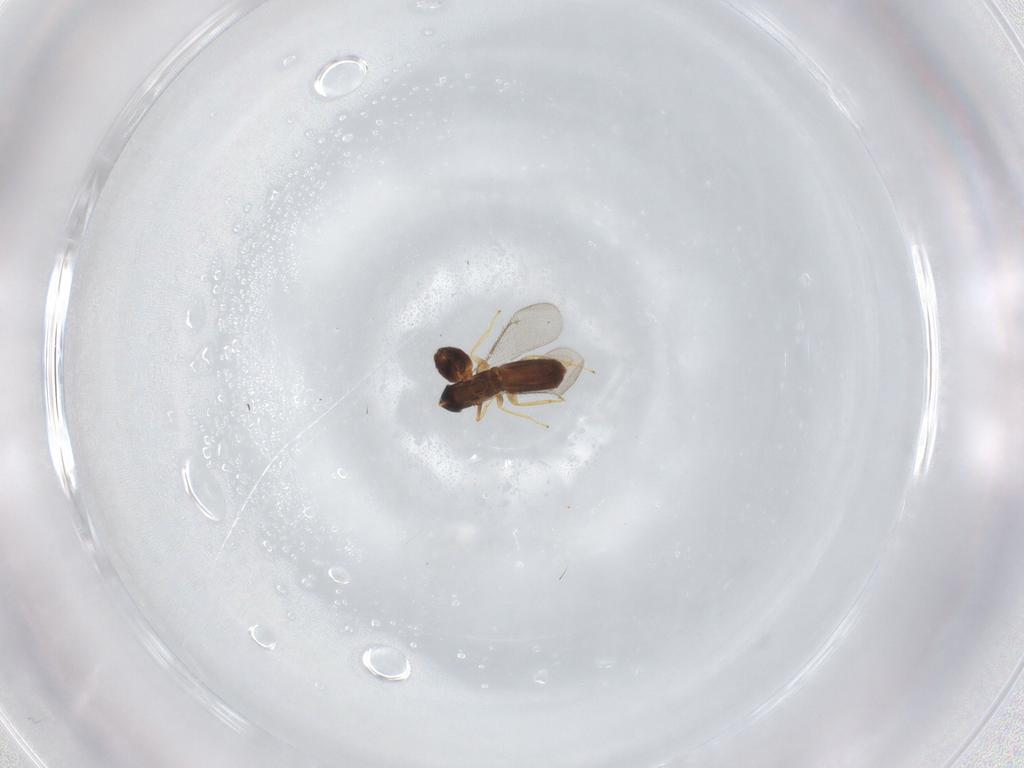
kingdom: Animalia
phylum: Arthropoda
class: Insecta
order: Hymenoptera
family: Eulophidae
